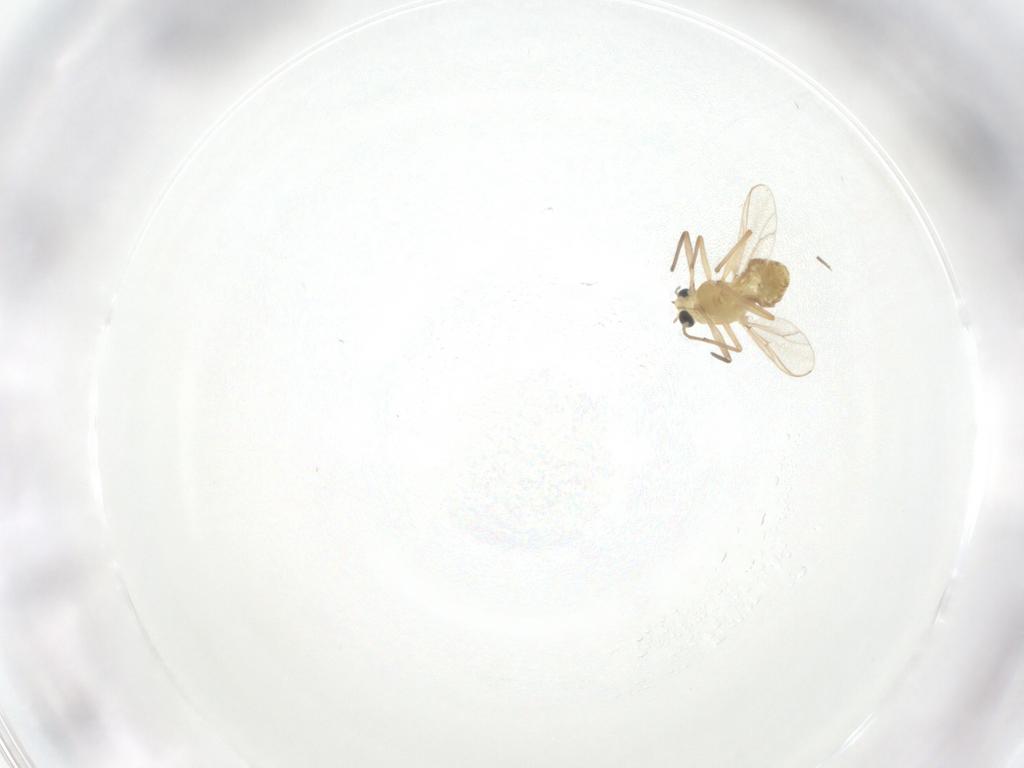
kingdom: Animalia
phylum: Arthropoda
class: Insecta
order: Diptera
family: Chironomidae
